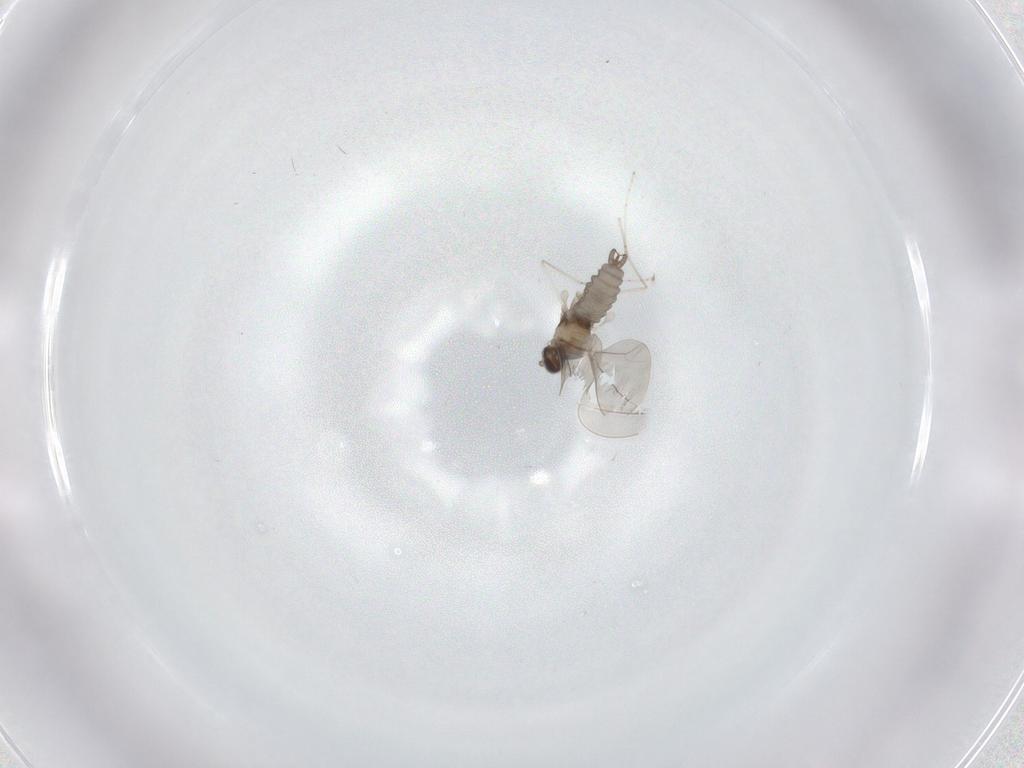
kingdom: Animalia
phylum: Arthropoda
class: Insecta
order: Diptera
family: Cecidomyiidae
